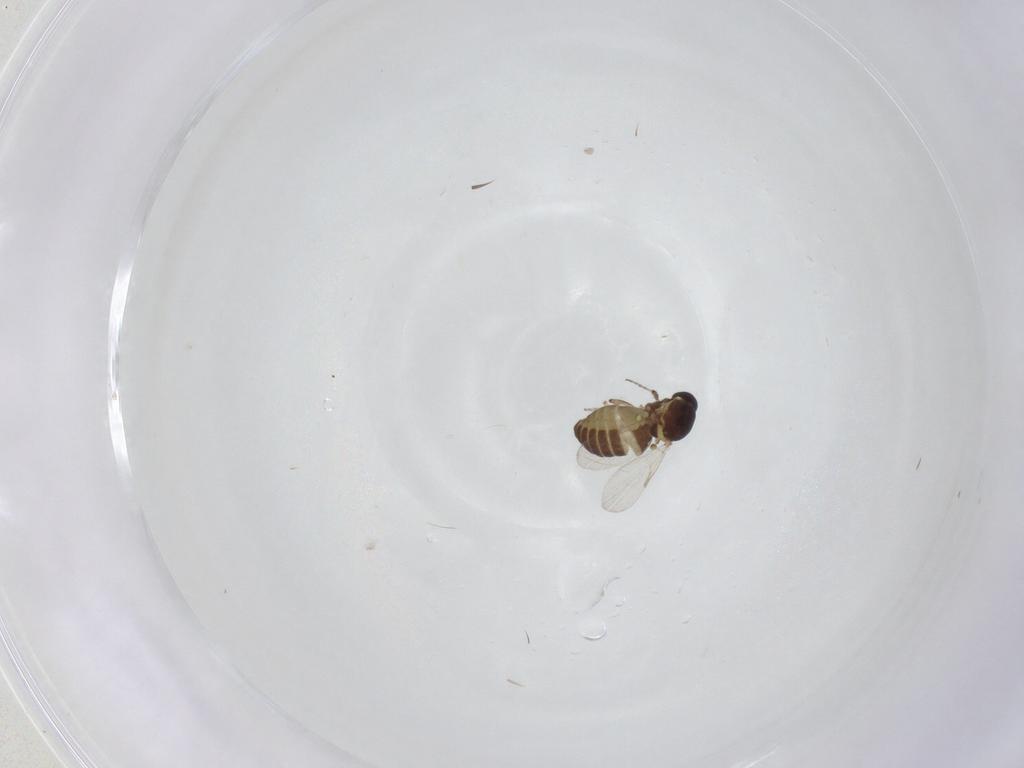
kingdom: Animalia
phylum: Arthropoda
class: Insecta
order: Diptera
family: Ceratopogonidae
